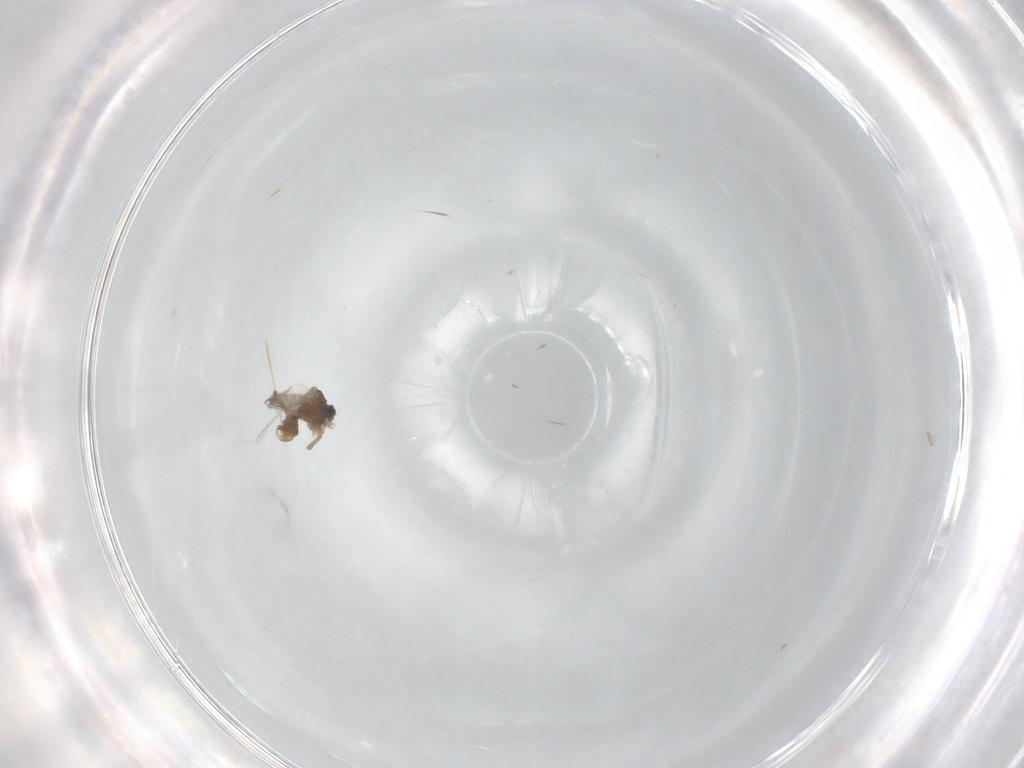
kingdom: Animalia
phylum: Arthropoda
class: Insecta
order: Diptera
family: Cecidomyiidae
